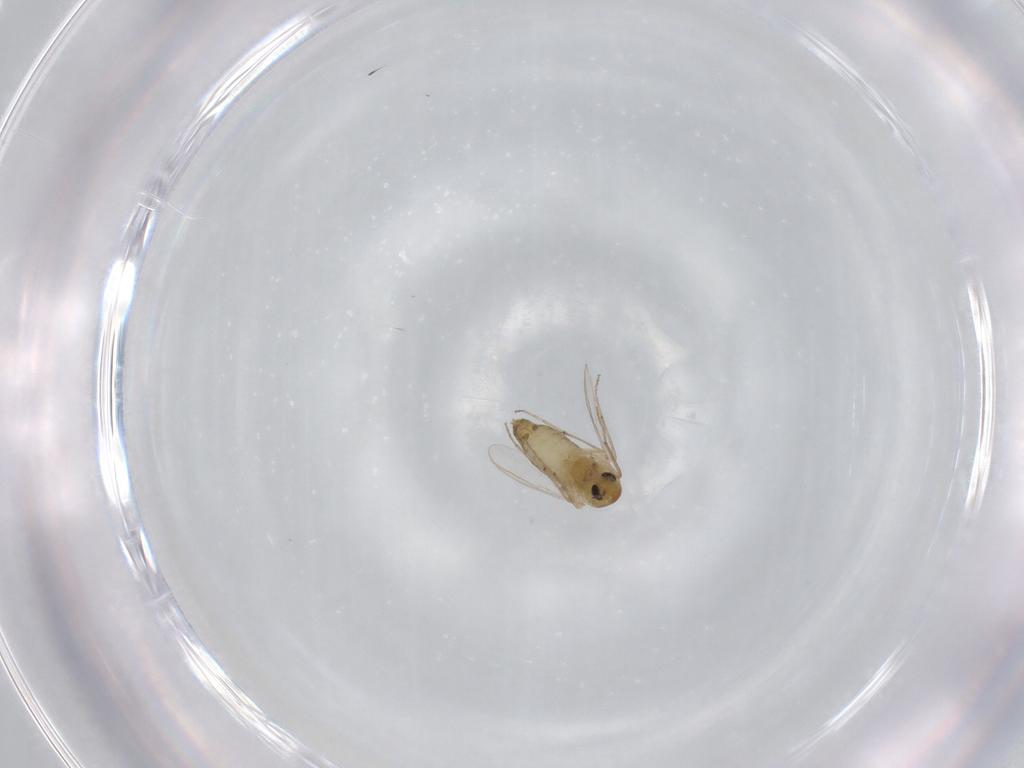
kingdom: Animalia
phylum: Arthropoda
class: Insecta
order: Diptera
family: Chironomidae
